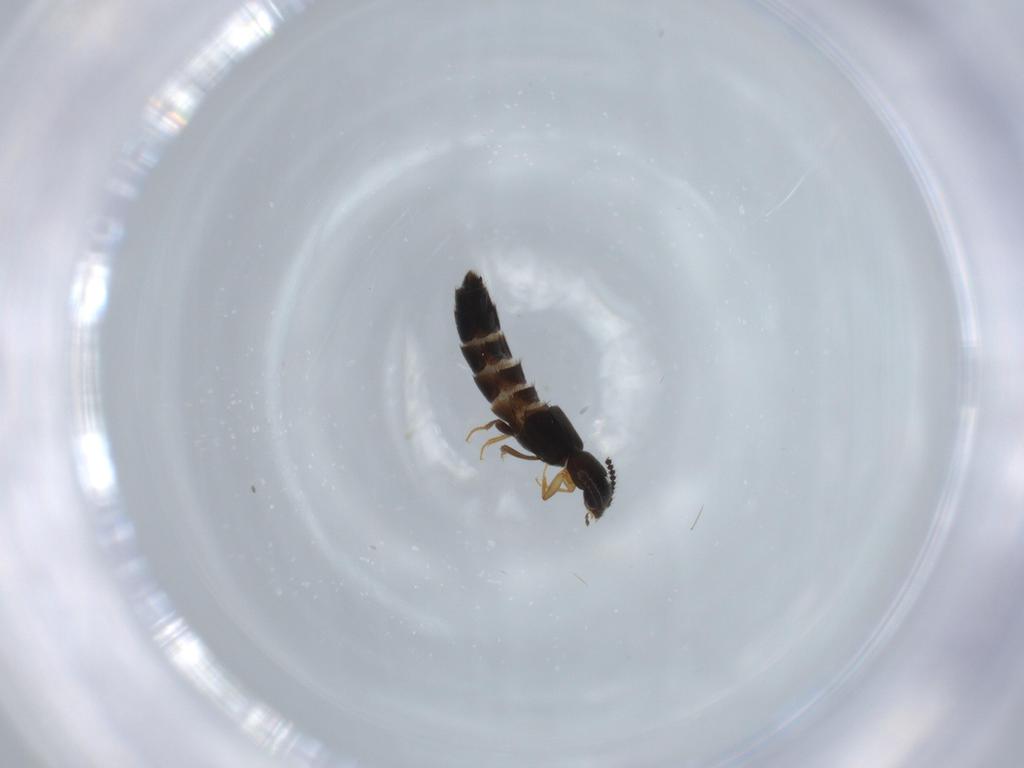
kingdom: Animalia
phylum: Arthropoda
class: Insecta
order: Coleoptera
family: Staphylinidae
